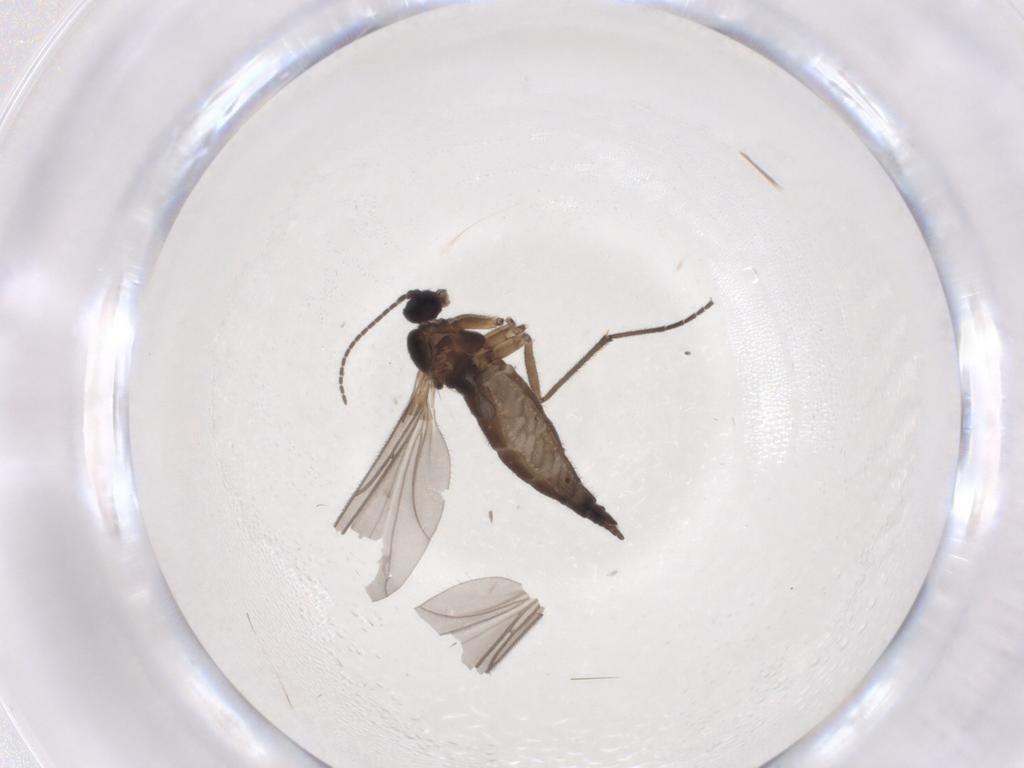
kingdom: Animalia
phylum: Arthropoda
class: Insecta
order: Diptera
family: Sciaridae
